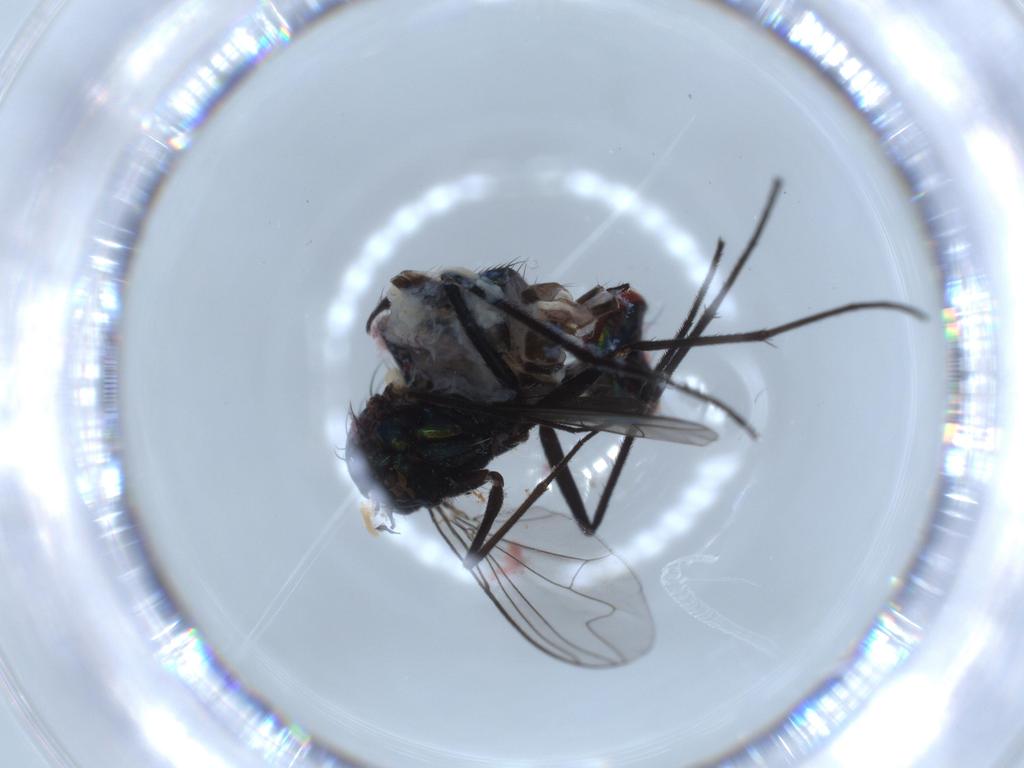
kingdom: Animalia
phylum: Arthropoda
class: Insecta
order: Diptera
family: Dolichopodidae
